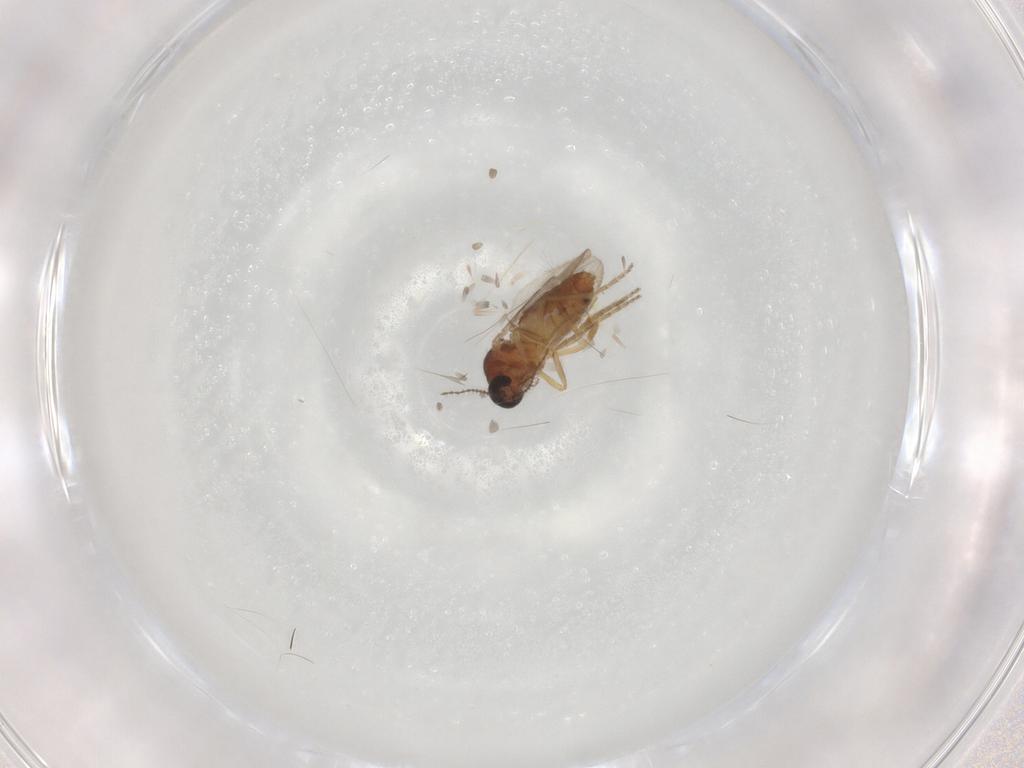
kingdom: Animalia
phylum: Arthropoda
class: Insecta
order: Diptera
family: Ceratopogonidae
